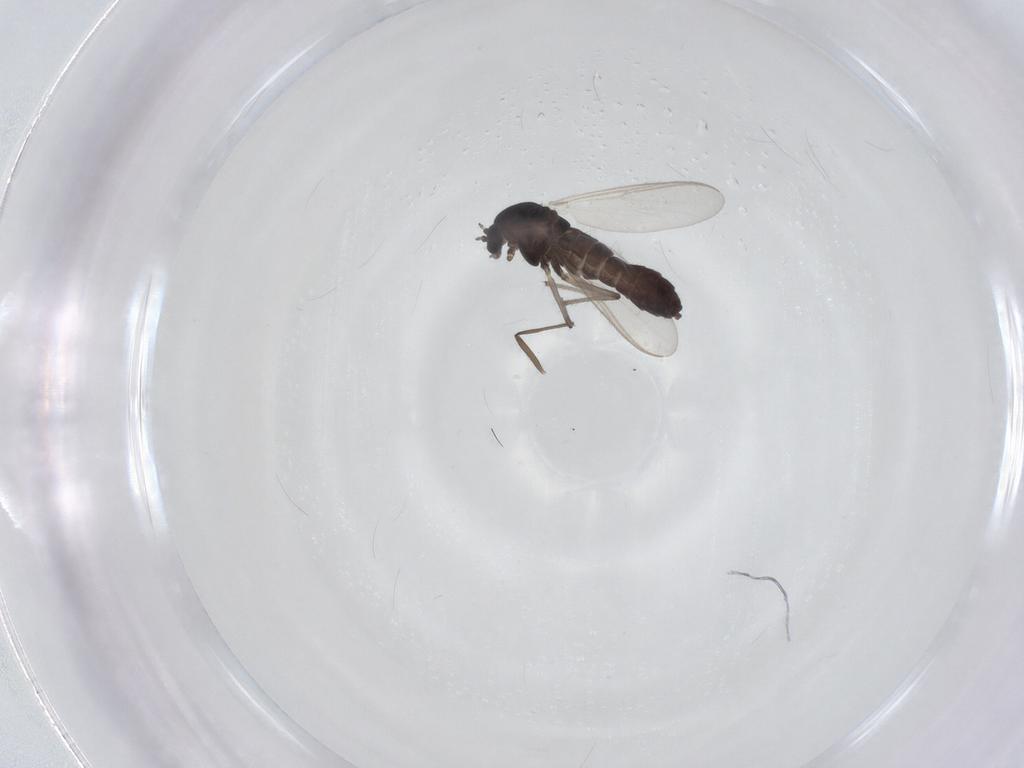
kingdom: Animalia
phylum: Arthropoda
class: Insecta
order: Diptera
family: Chironomidae
